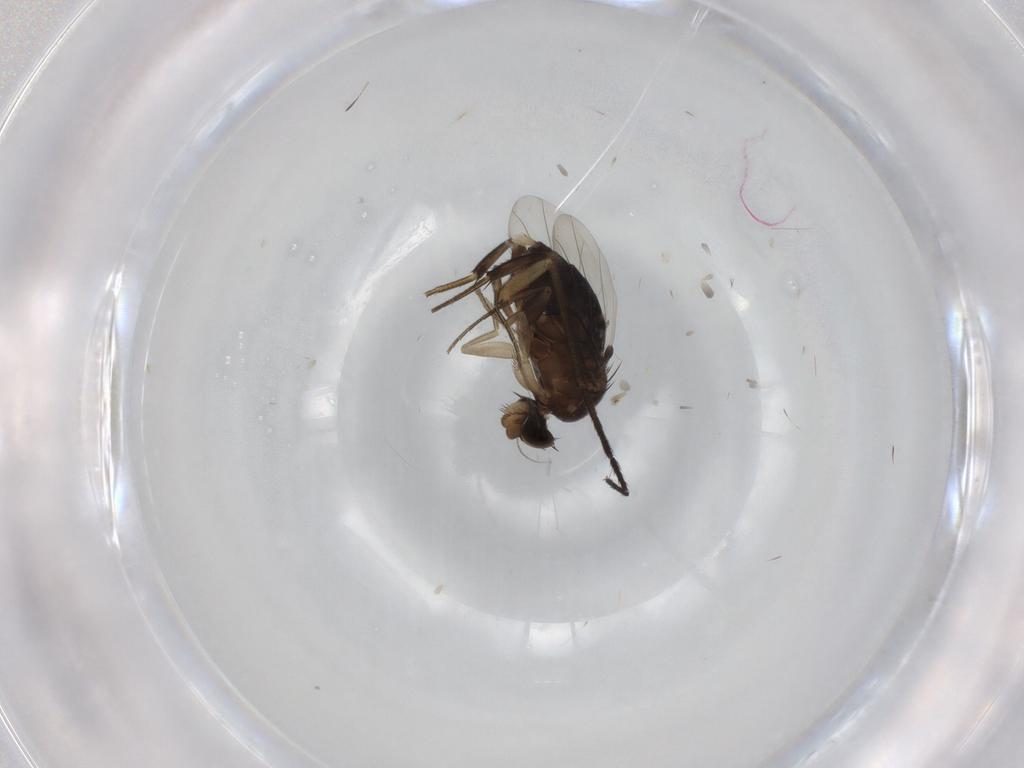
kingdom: Animalia
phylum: Arthropoda
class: Insecta
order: Diptera
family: Phoridae
